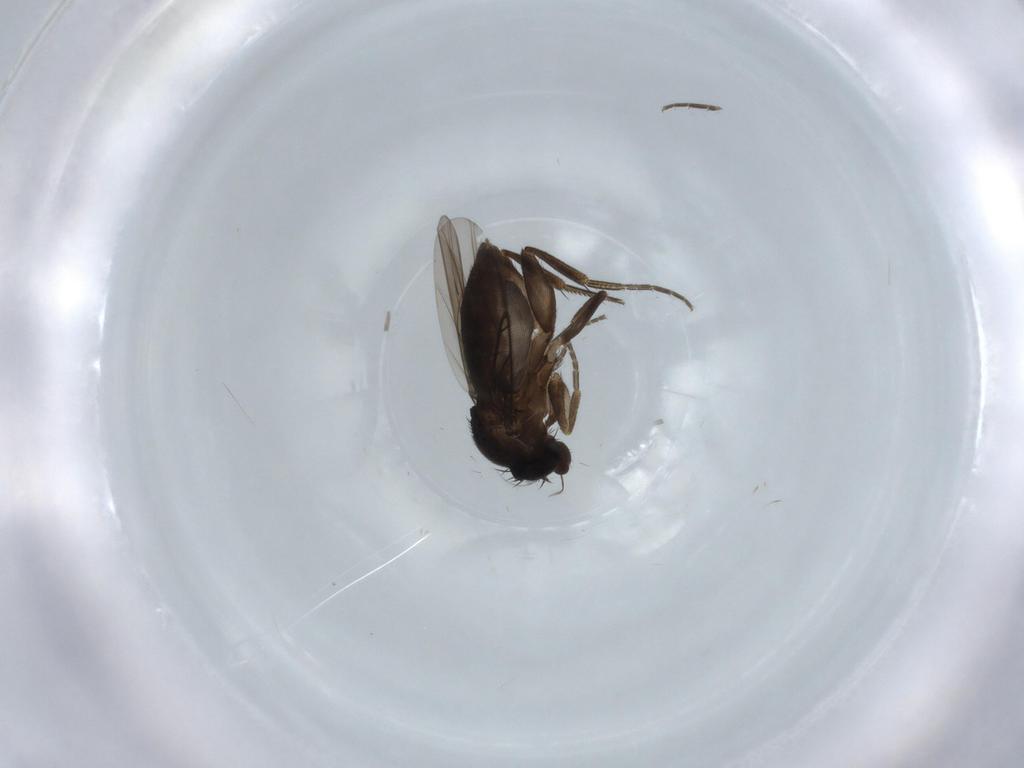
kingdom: Animalia
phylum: Arthropoda
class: Insecta
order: Diptera
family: Phoridae
